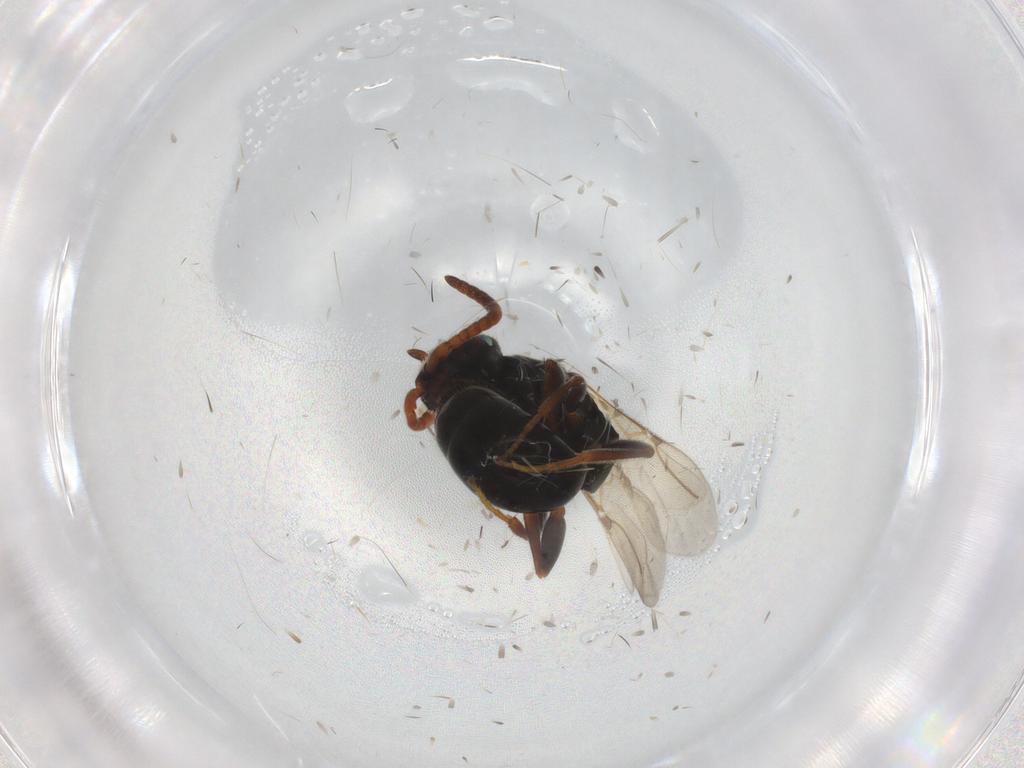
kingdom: Animalia
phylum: Arthropoda
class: Insecta
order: Hymenoptera
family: Bethylidae
